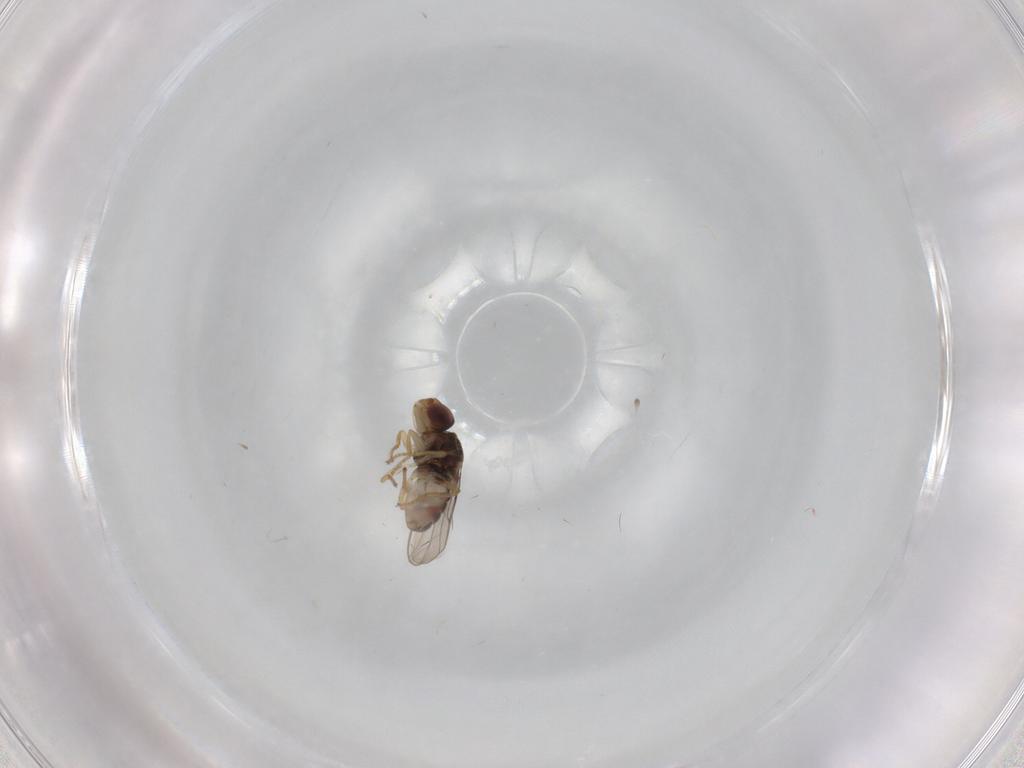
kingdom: Animalia
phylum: Arthropoda
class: Insecta
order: Diptera
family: Chloropidae
